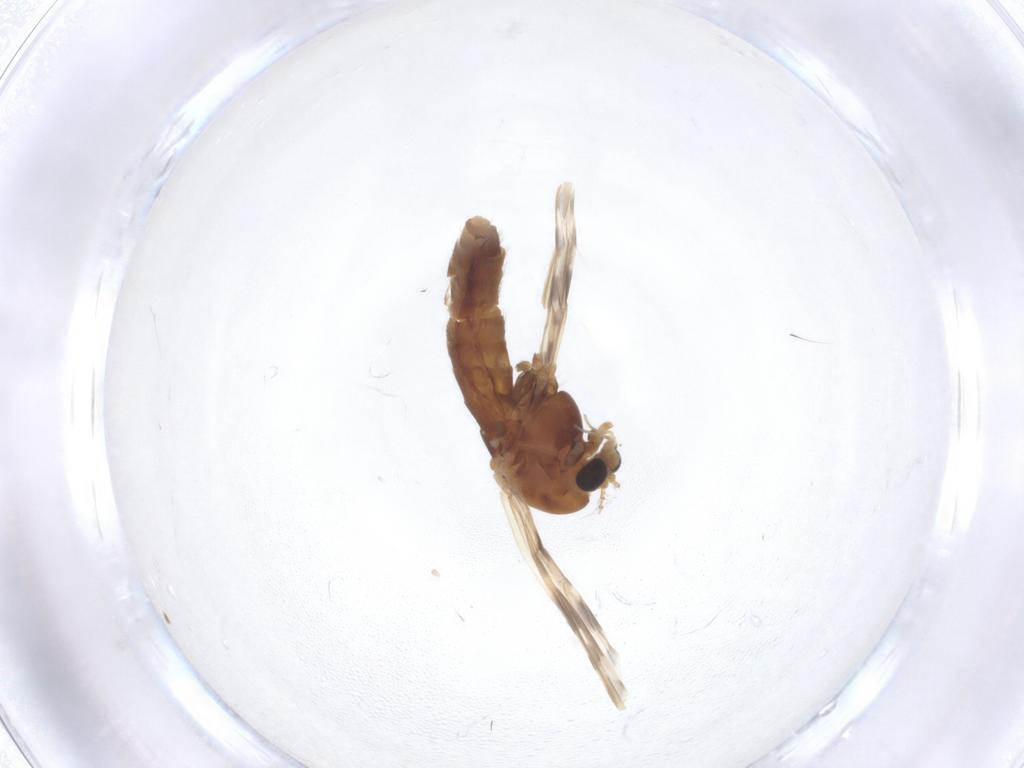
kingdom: Animalia
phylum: Arthropoda
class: Insecta
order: Diptera
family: Chironomidae
